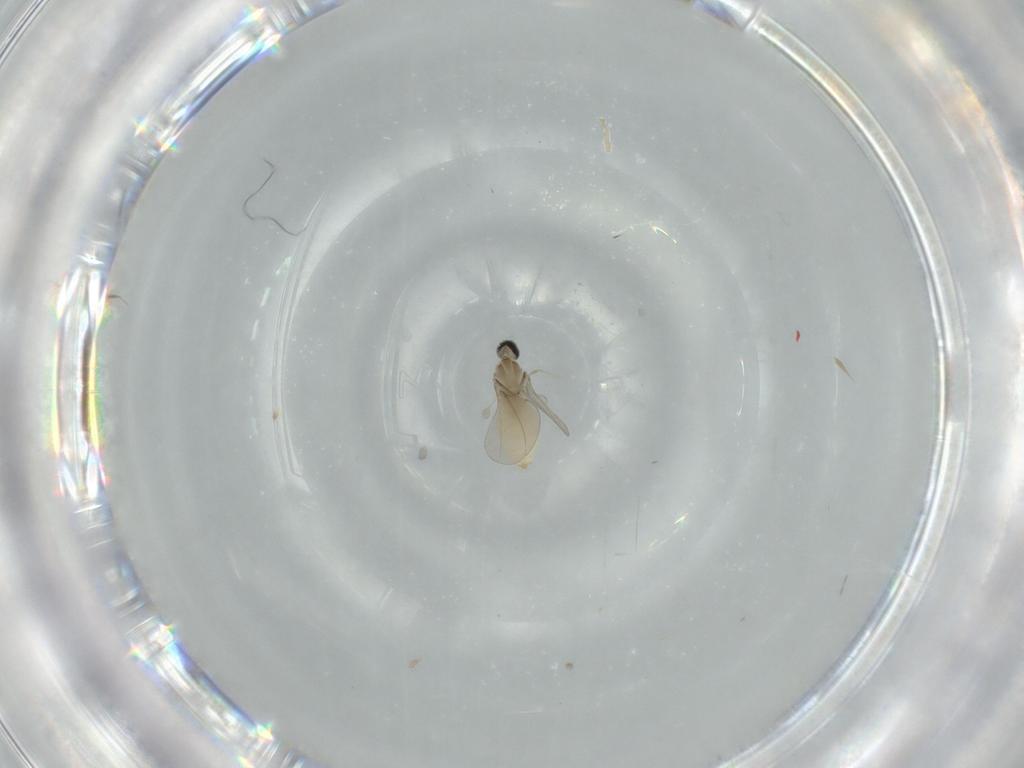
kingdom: Animalia
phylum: Arthropoda
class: Insecta
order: Diptera
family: Cecidomyiidae
